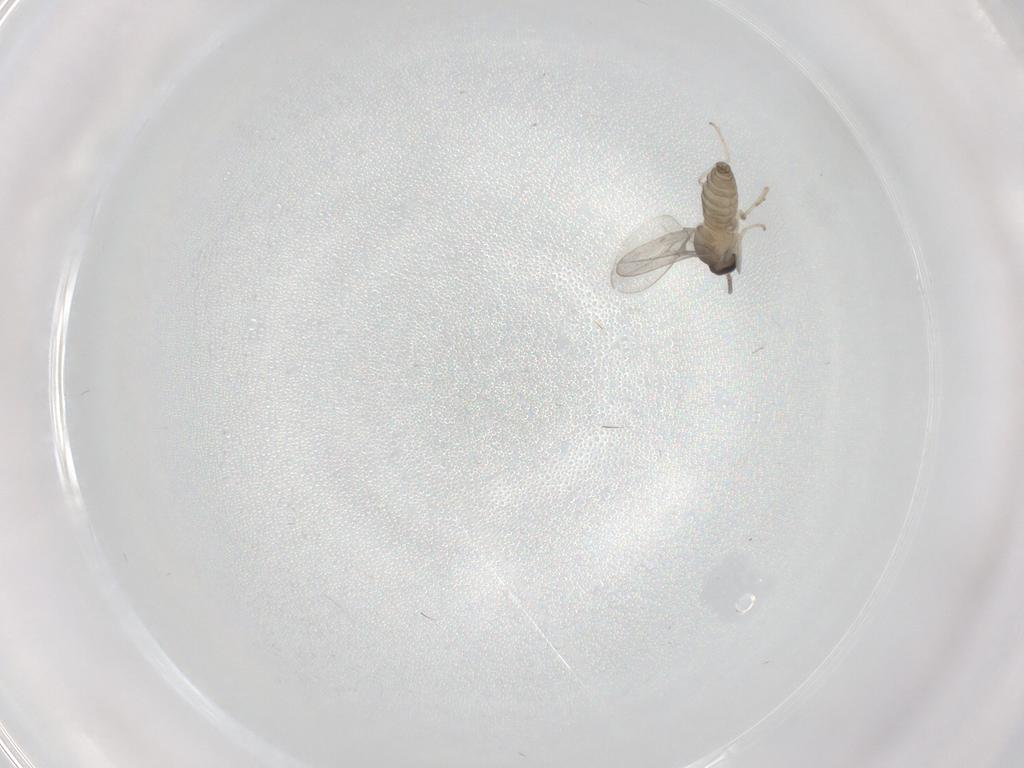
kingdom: Animalia
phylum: Arthropoda
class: Insecta
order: Diptera
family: Cecidomyiidae
